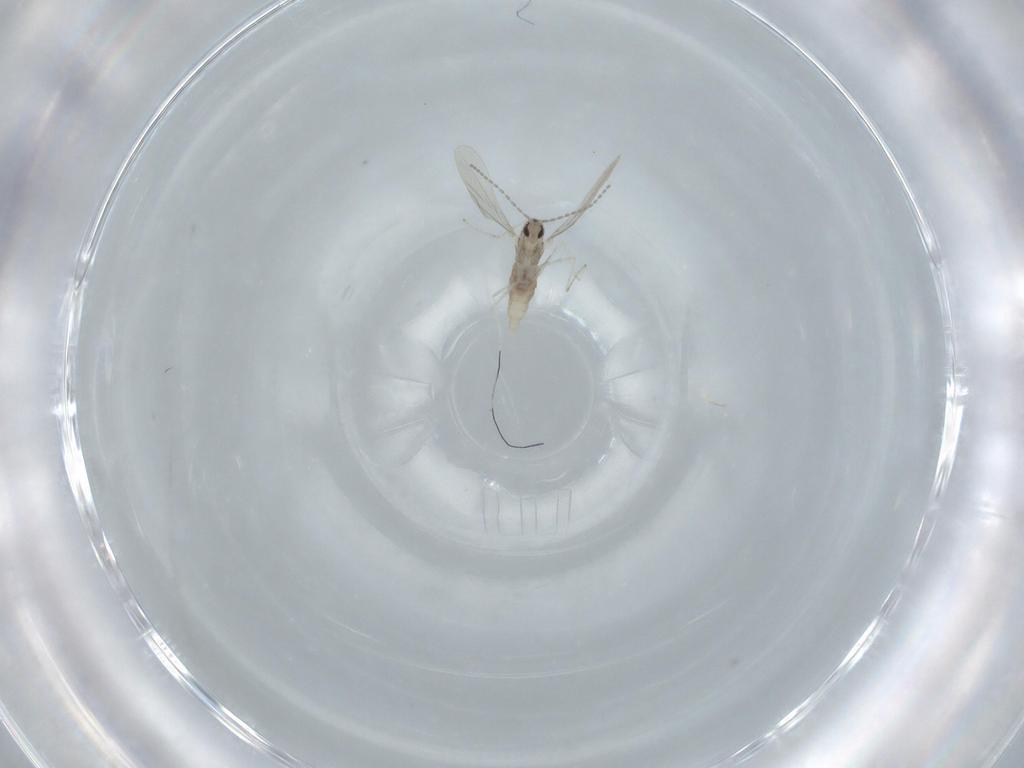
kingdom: Animalia
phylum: Arthropoda
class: Insecta
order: Diptera
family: Cecidomyiidae
